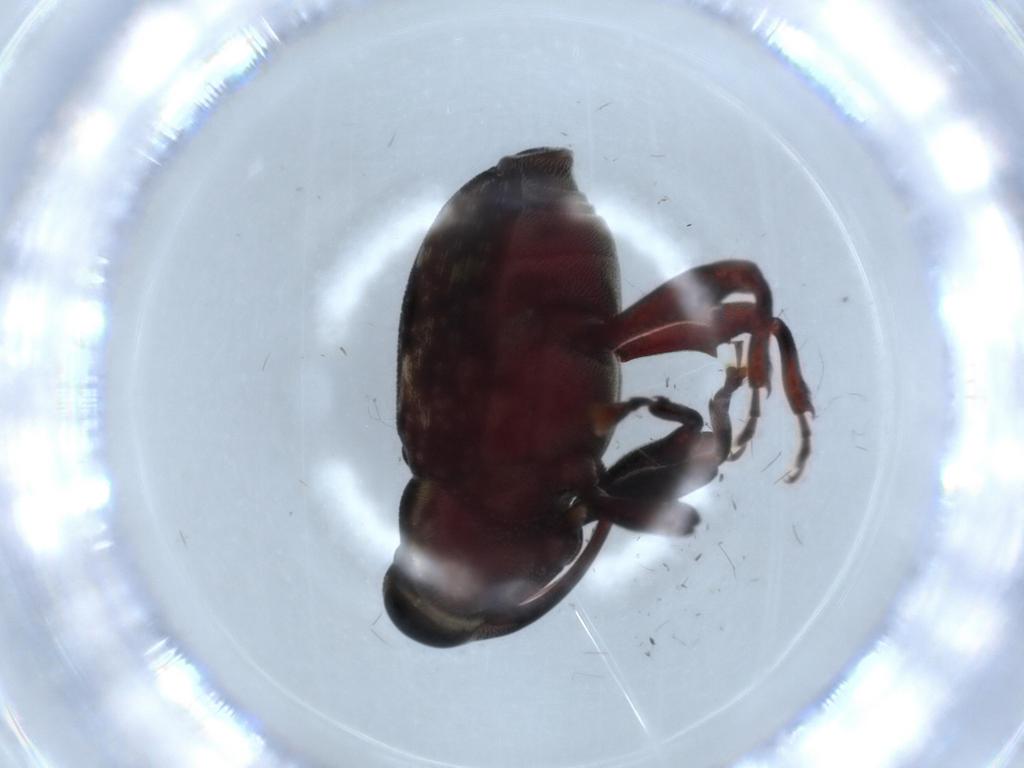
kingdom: Animalia
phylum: Arthropoda
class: Insecta
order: Coleoptera
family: Curculionidae
